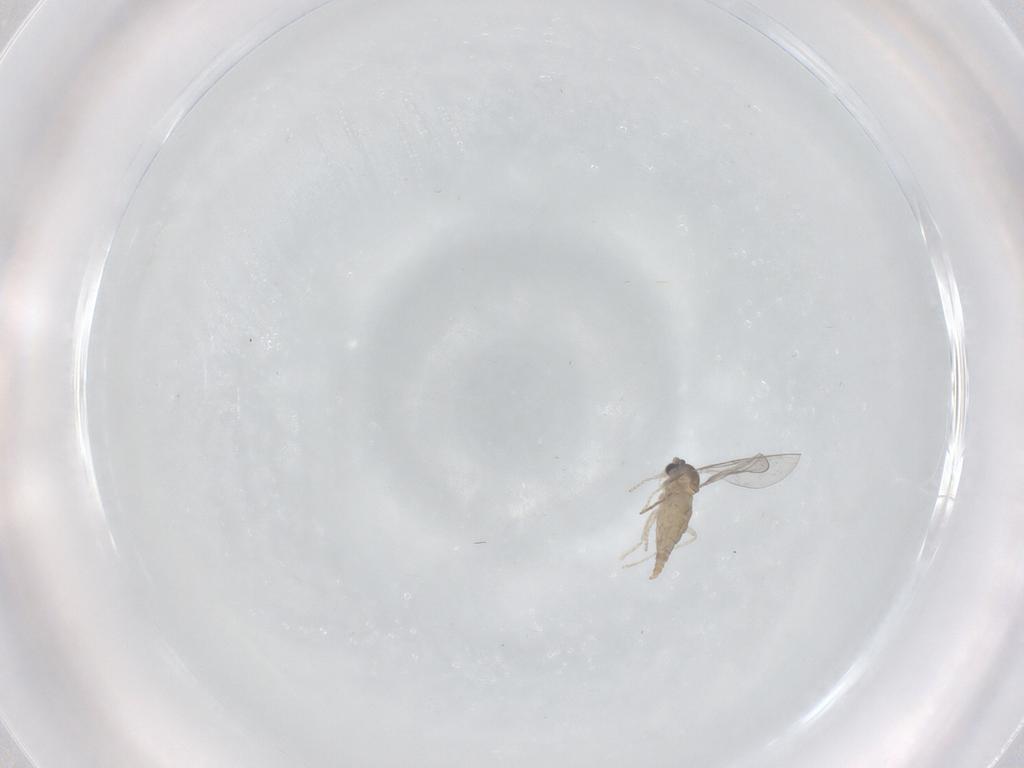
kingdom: Animalia
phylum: Arthropoda
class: Insecta
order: Diptera
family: Cecidomyiidae
